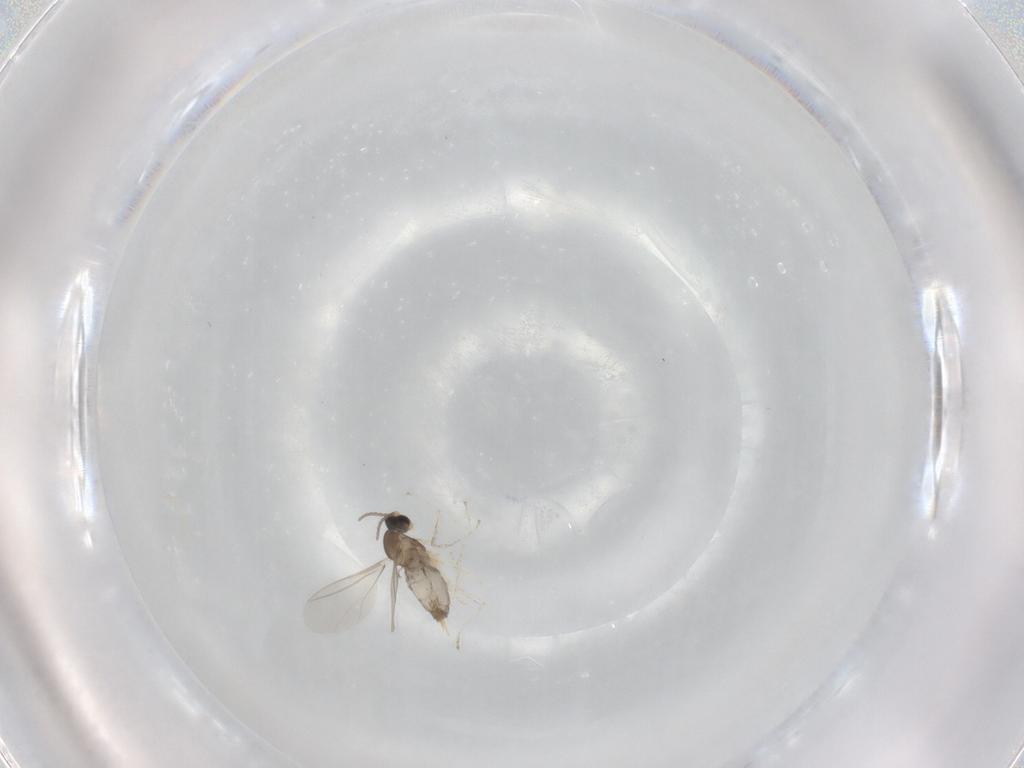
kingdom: Animalia
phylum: Arthropoda
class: Insecta
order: Diptera
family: Cecidomyiidae
